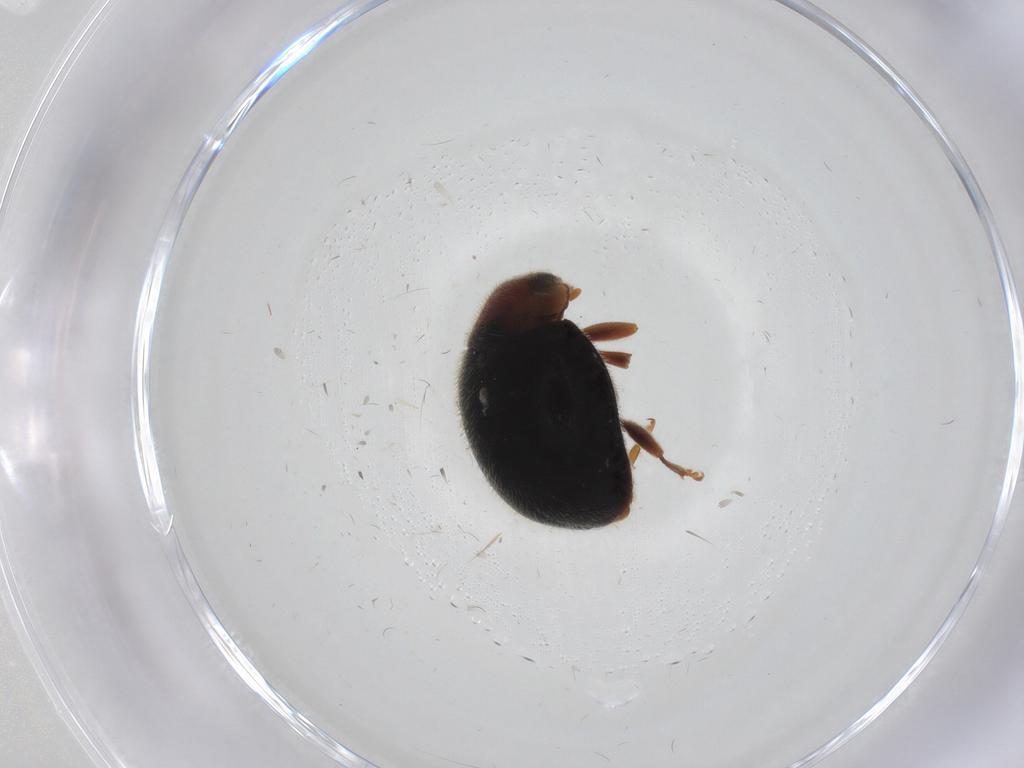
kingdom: Animalia
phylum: Arthropoda
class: Insecta
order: Coleoptera
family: Coccinellidae
